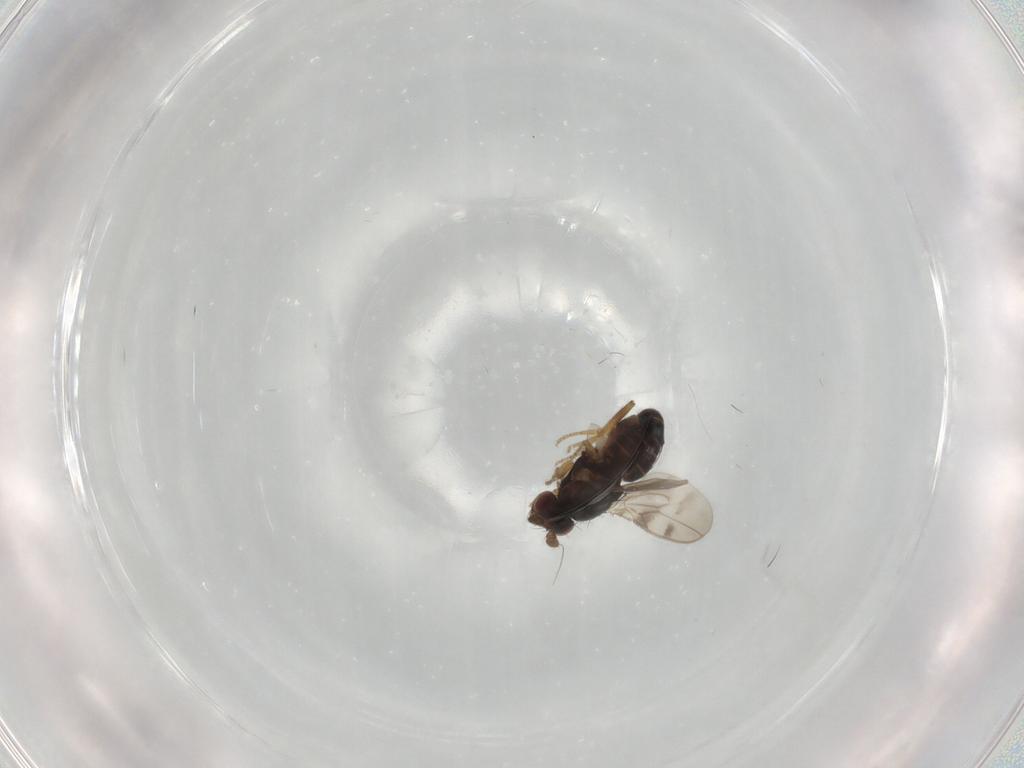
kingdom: Animalia
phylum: Arthropoda
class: Insecta
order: Diptera
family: Sphaeroceridae
